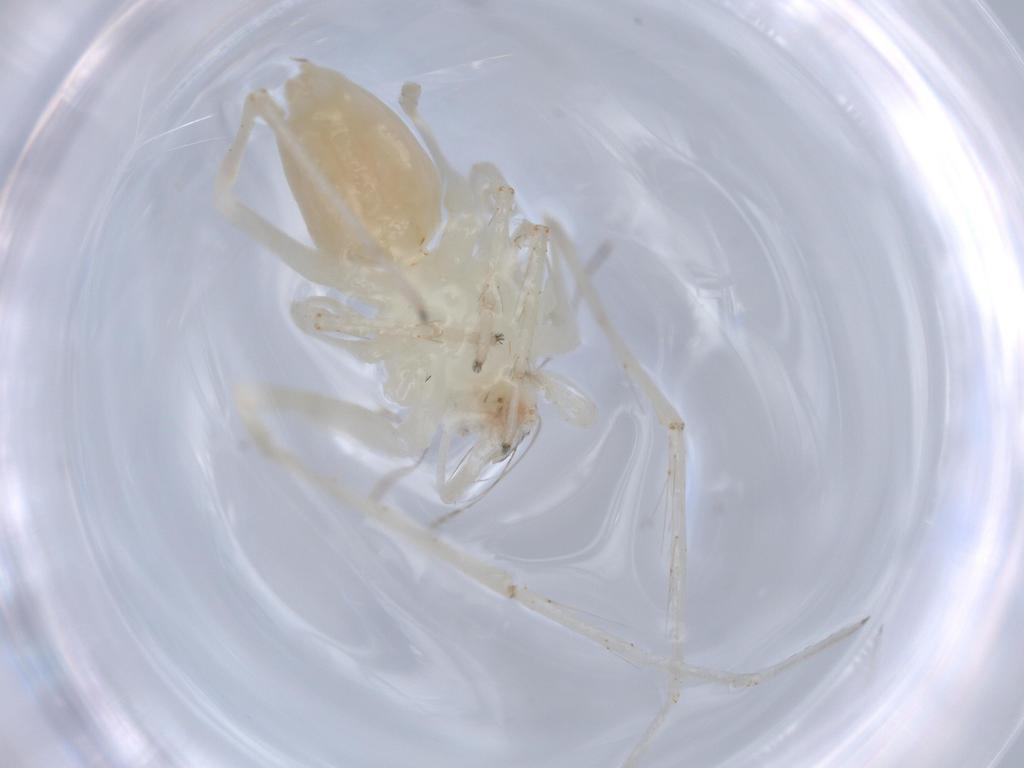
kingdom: Animalia
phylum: Arthropoda
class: Arachnida
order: Araneae
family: Anyphaenidae
